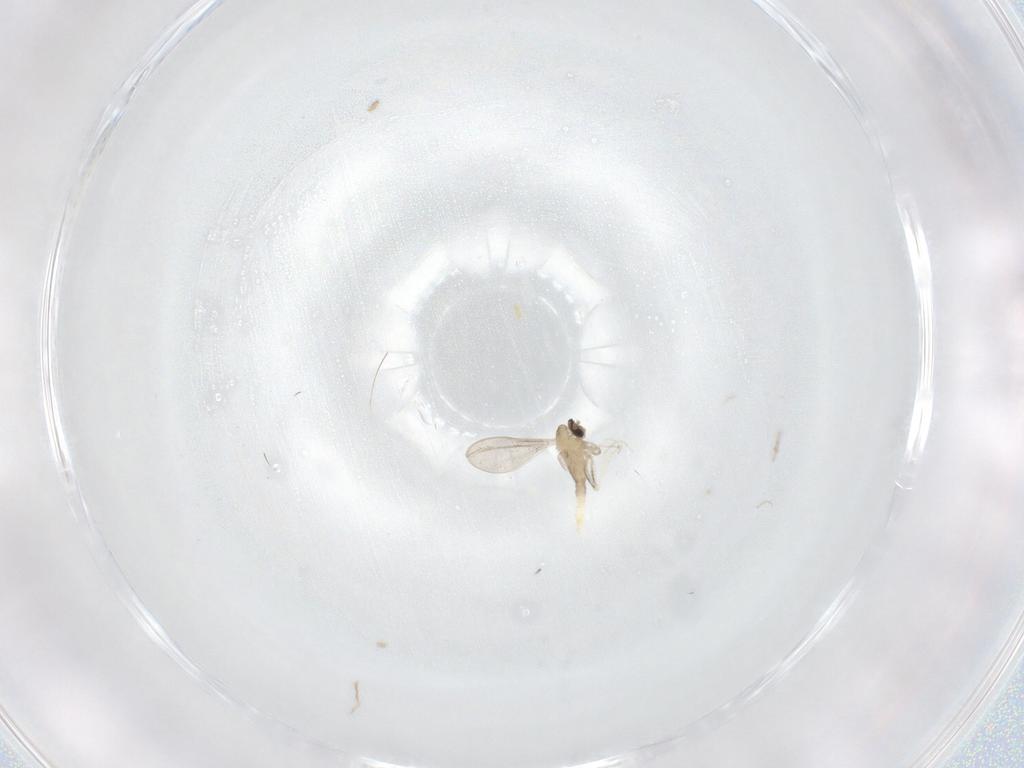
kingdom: Animalia
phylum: Arthropoda
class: Insecta
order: Diptera
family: Cecidomyiidae
